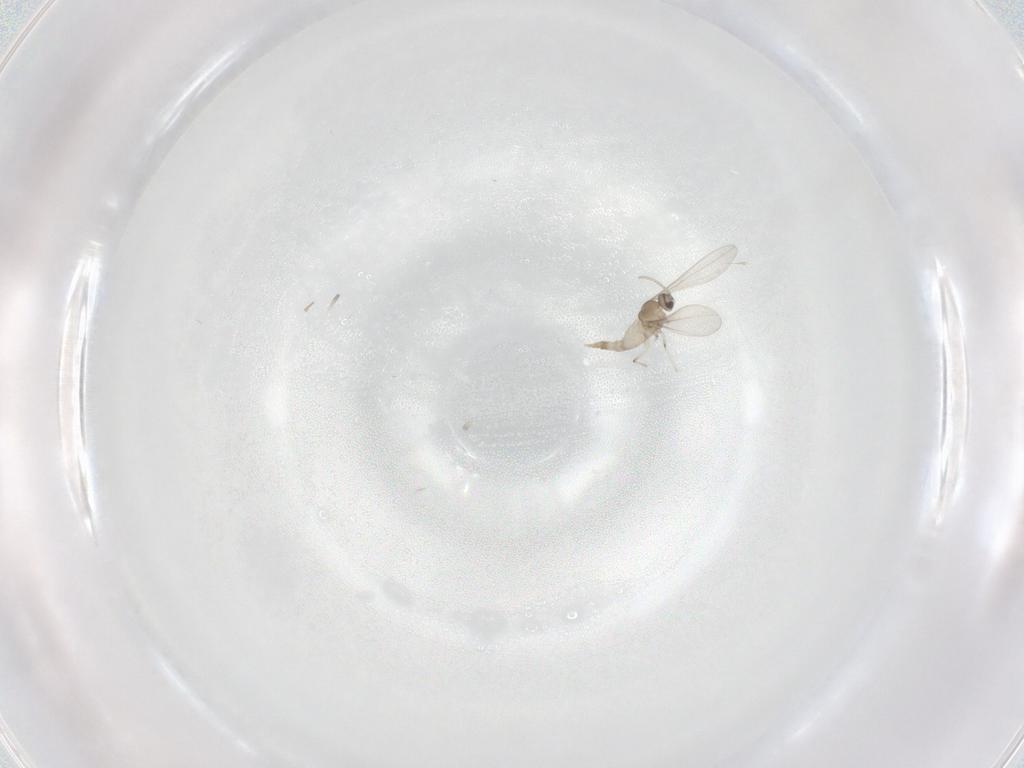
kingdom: Animalia
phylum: Arthropoda
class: Insecta
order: Diptera
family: Cecidomyiidae
